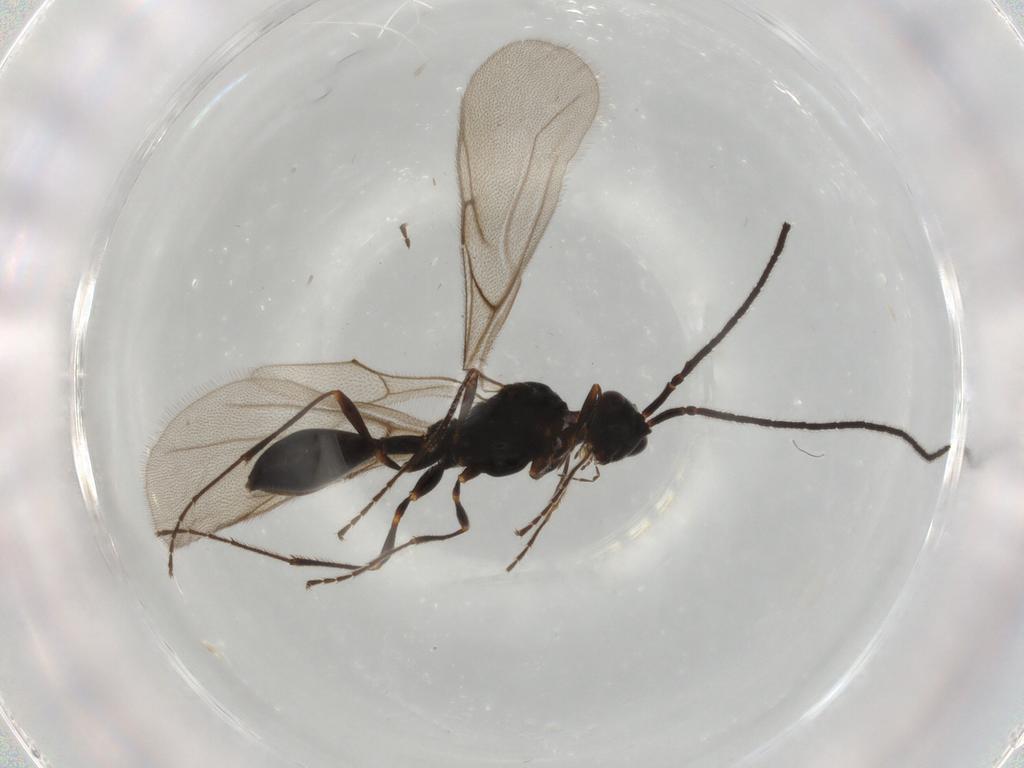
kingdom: Animalia
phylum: Arthropoda
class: Insecta
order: Hymenoptera
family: Diapriidae
